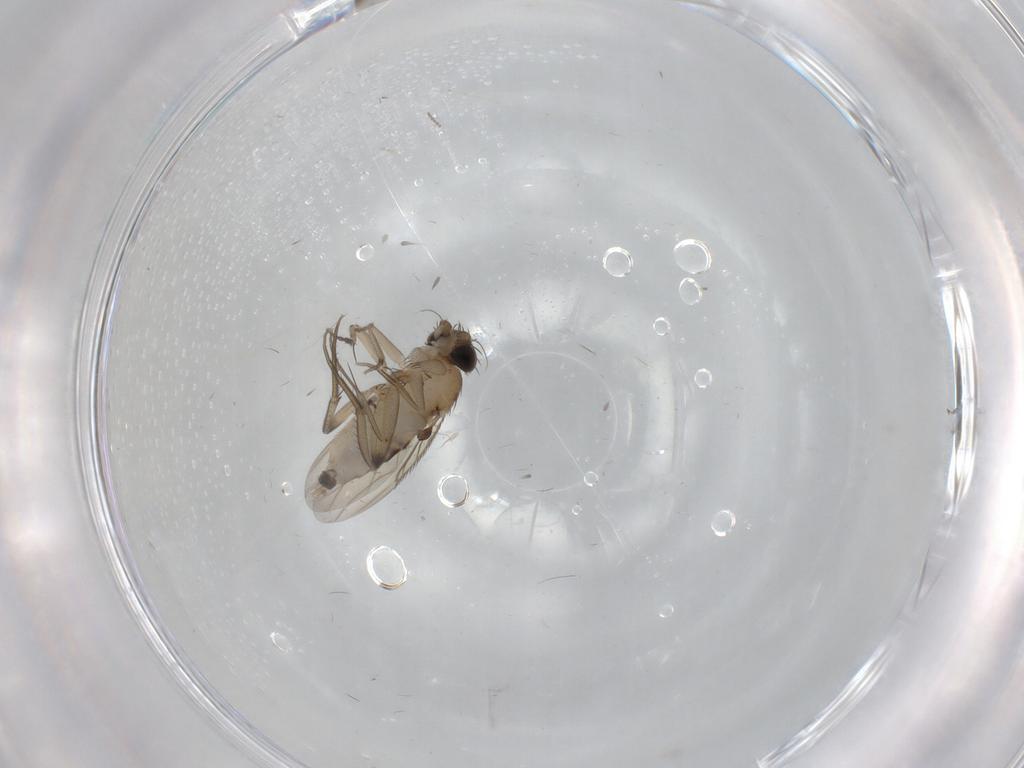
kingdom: Animalia
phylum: Arthropoda
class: Insecta
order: Diptera
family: Phoridae
